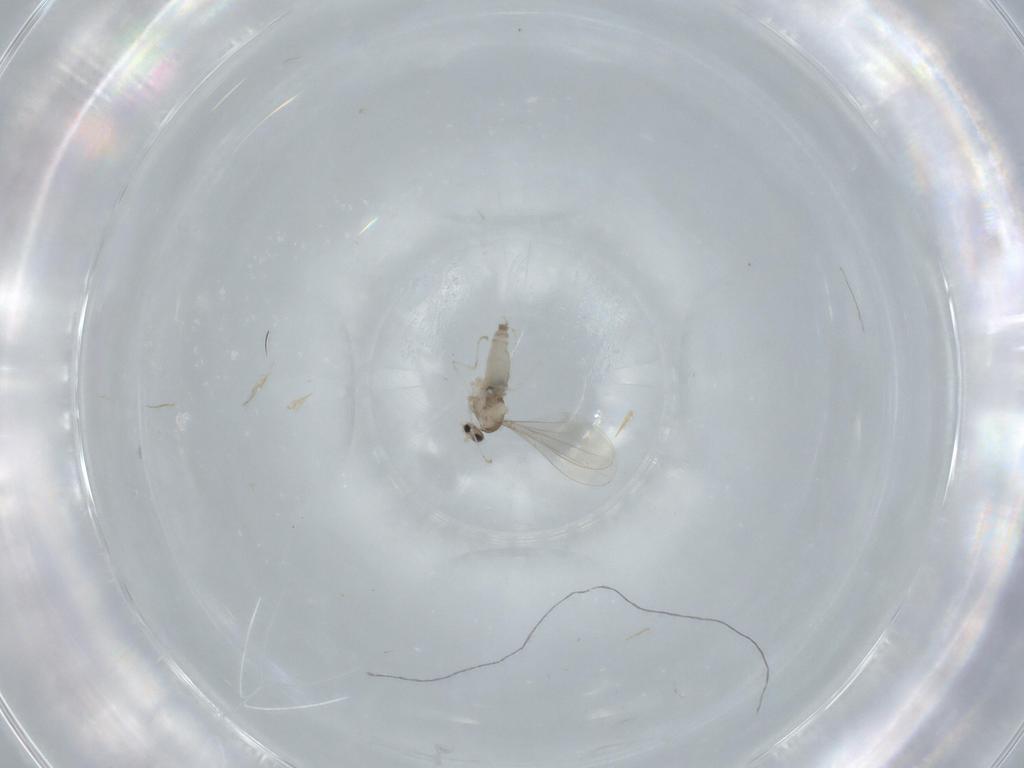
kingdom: Animalia
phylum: Arthropoda
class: Insecta
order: Diptera
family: Cecidomyiidae
